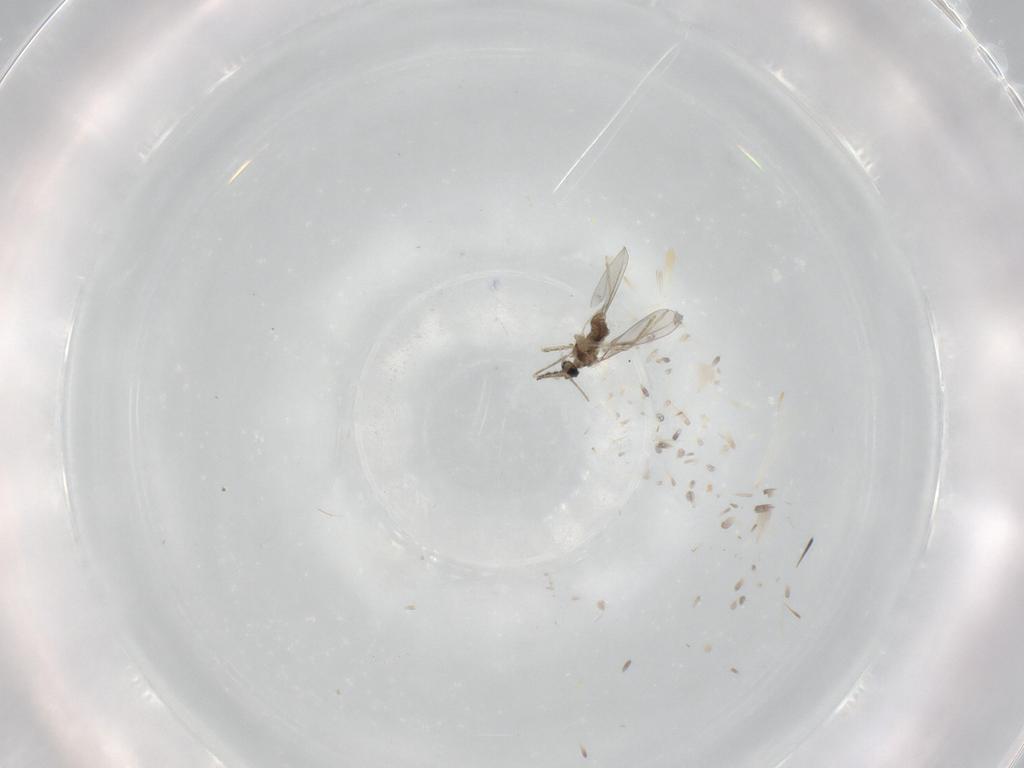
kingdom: Animalia
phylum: Arthropoda
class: Insecta
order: Diptera
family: Cecidomyiidae
